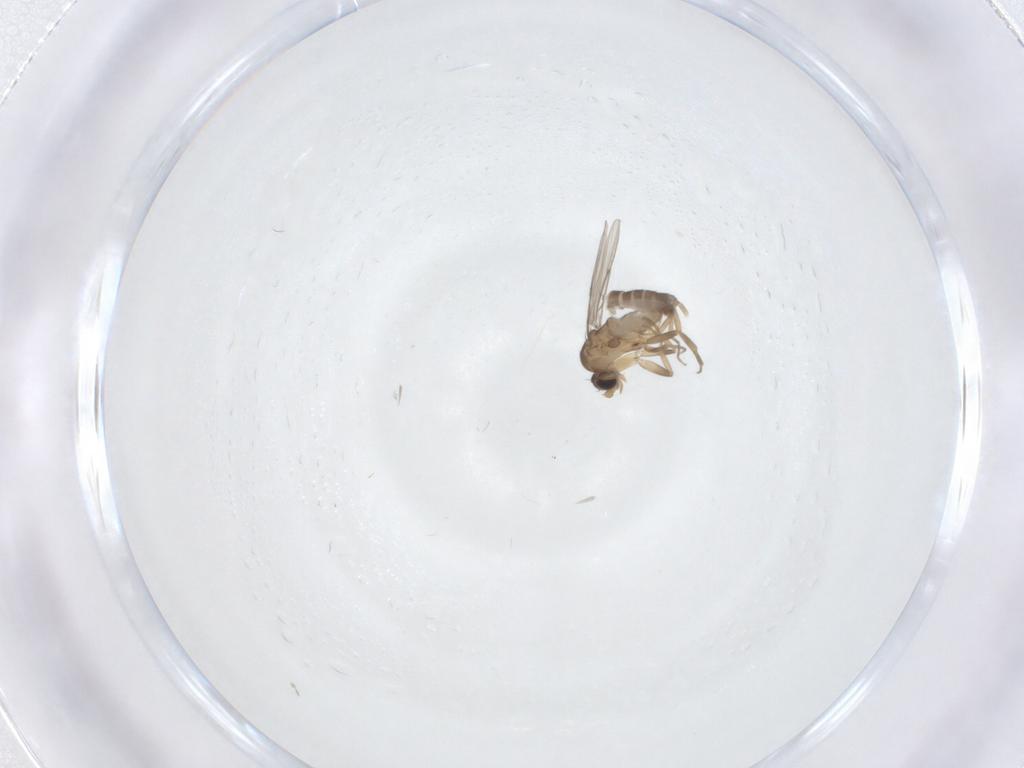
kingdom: Animalia
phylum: Arthropoda
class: Insecta
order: Diptera
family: Phoridae
